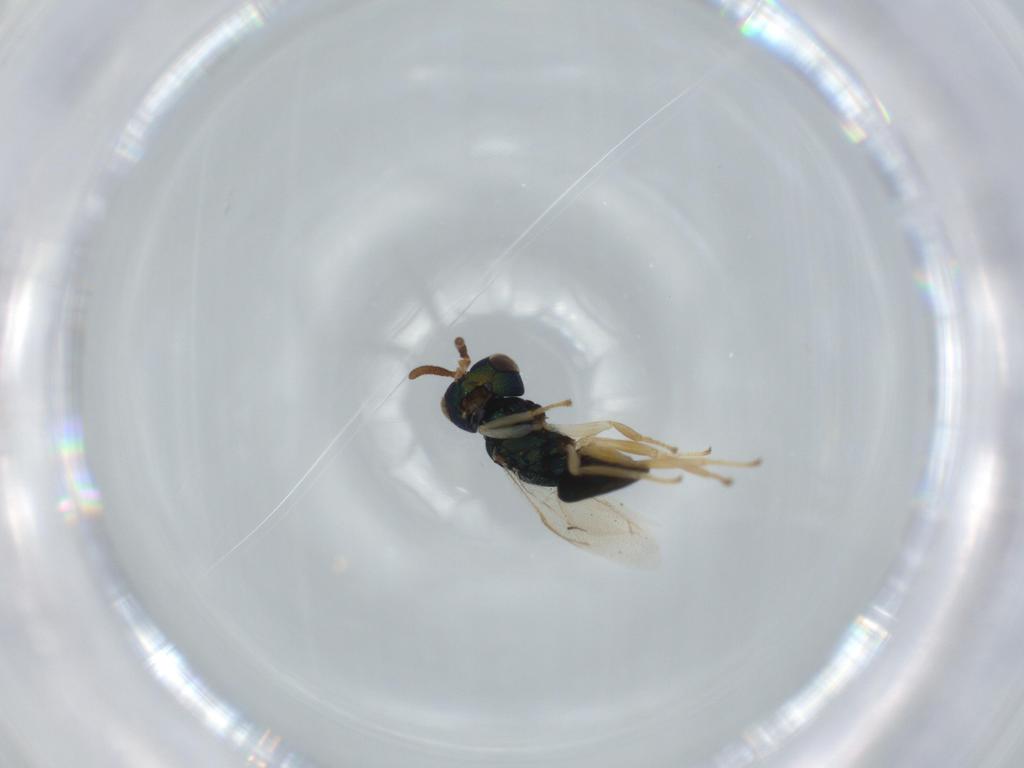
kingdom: Animalia
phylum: Arthropoda
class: Insecta
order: Hymenoptera
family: Pteromalidae
